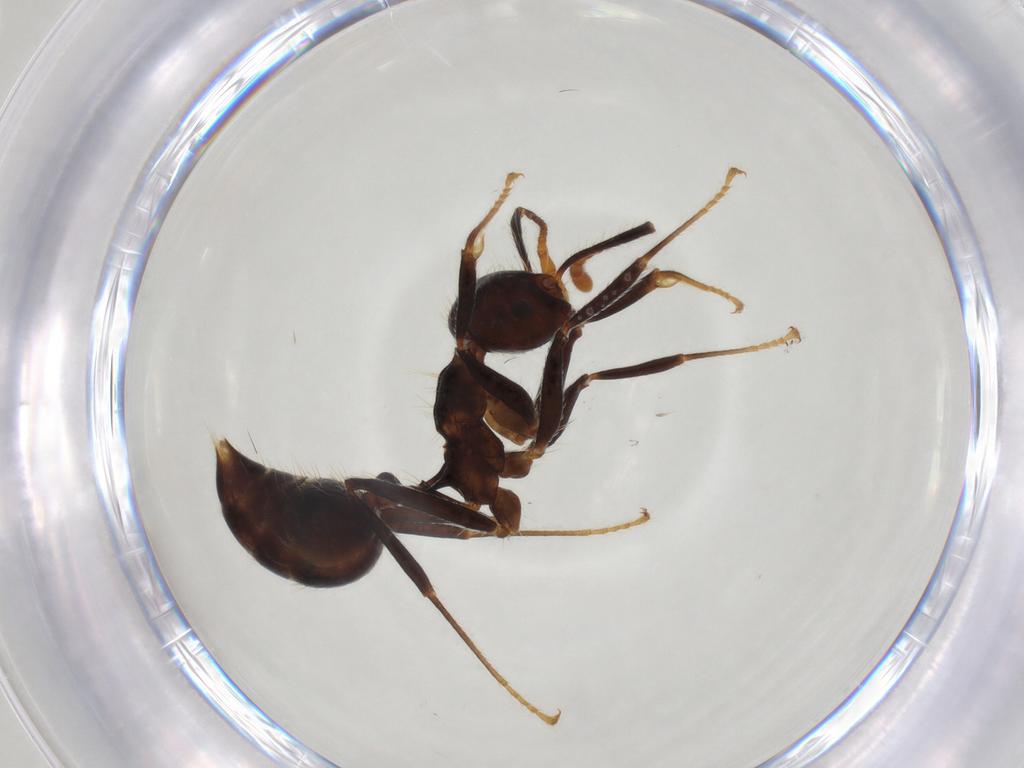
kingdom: Animalia
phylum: Arthropoda
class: Insecta
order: Hymenoptera
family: Formicidae
